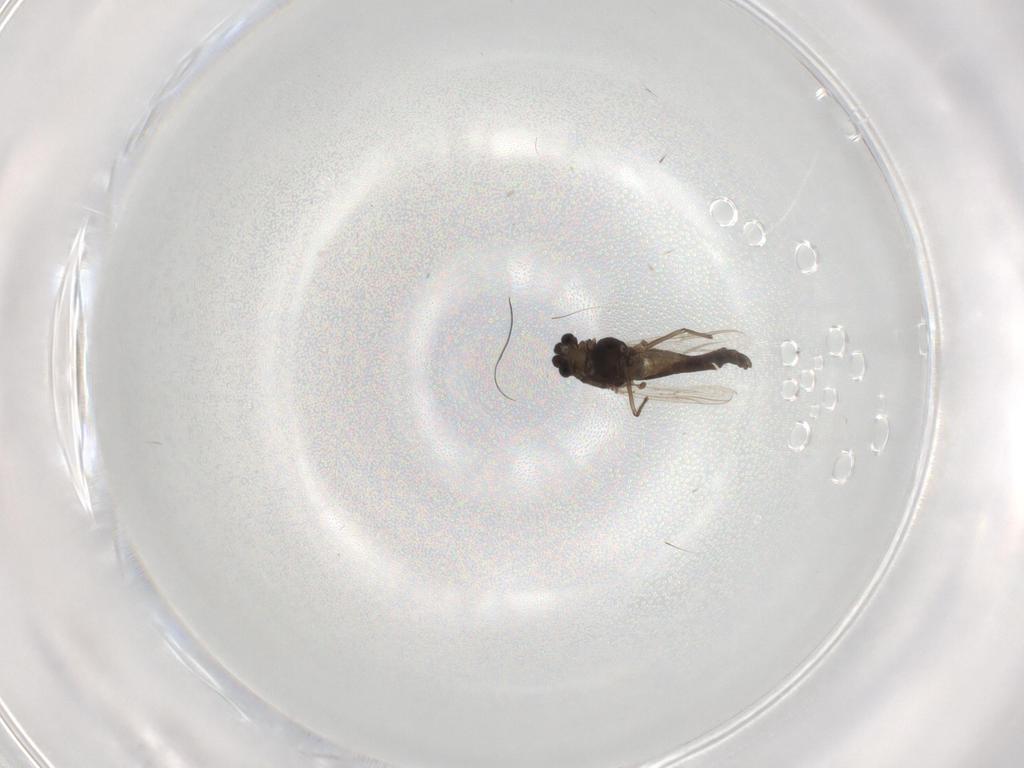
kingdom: Animalia
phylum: Arthropoda
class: Insecta
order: Diptera
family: Chironomidae
